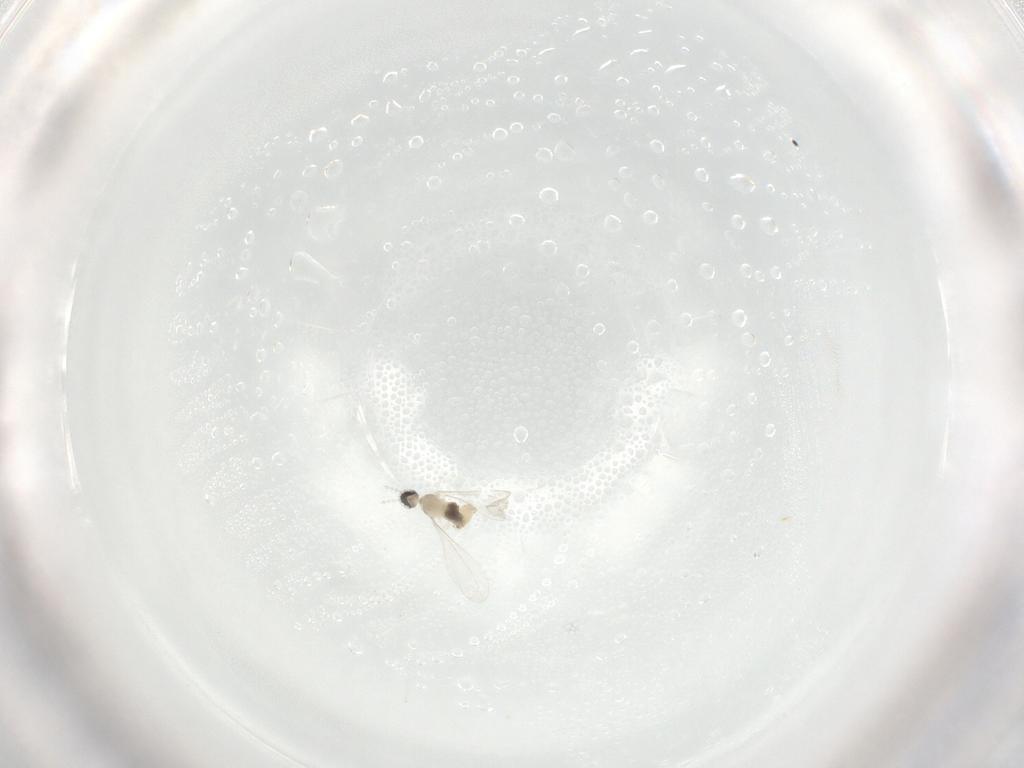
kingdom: Animalia
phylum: Arthropoda
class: Insecta
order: Diptera
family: Cecidomyiidae
